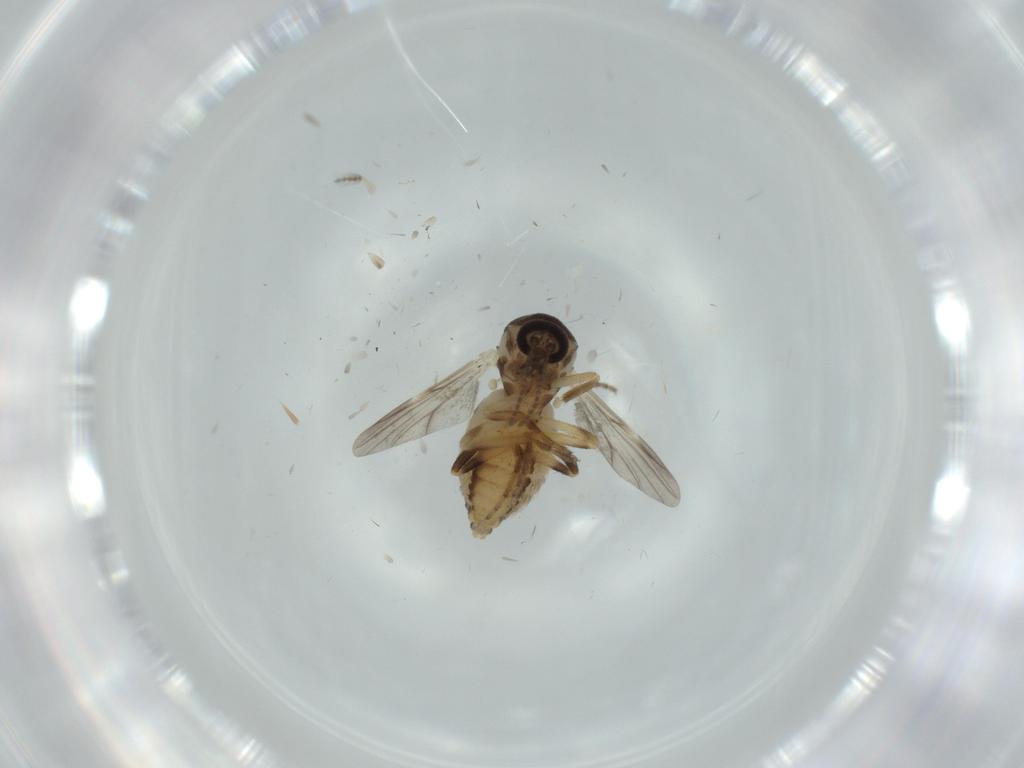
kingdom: Animalia
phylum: Arthropoda
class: Insecta
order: Diptera
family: Ceratopogonidae
